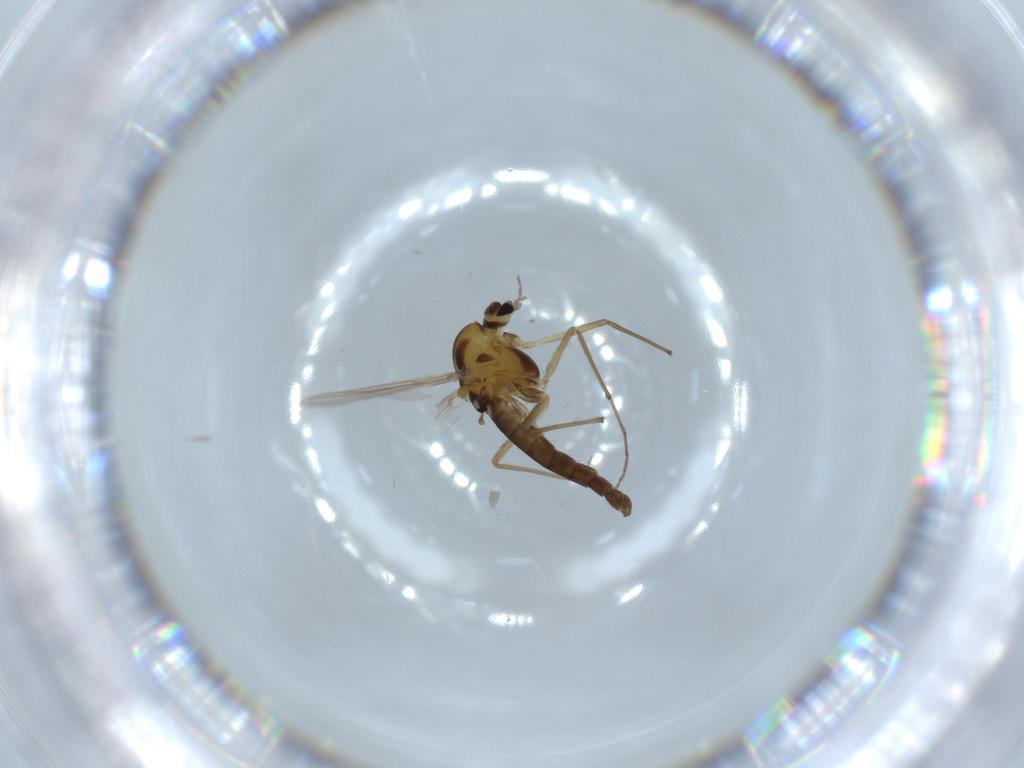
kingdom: Animalia
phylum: Arthropoda
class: Insecta
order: Diptera
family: Chironomidae
